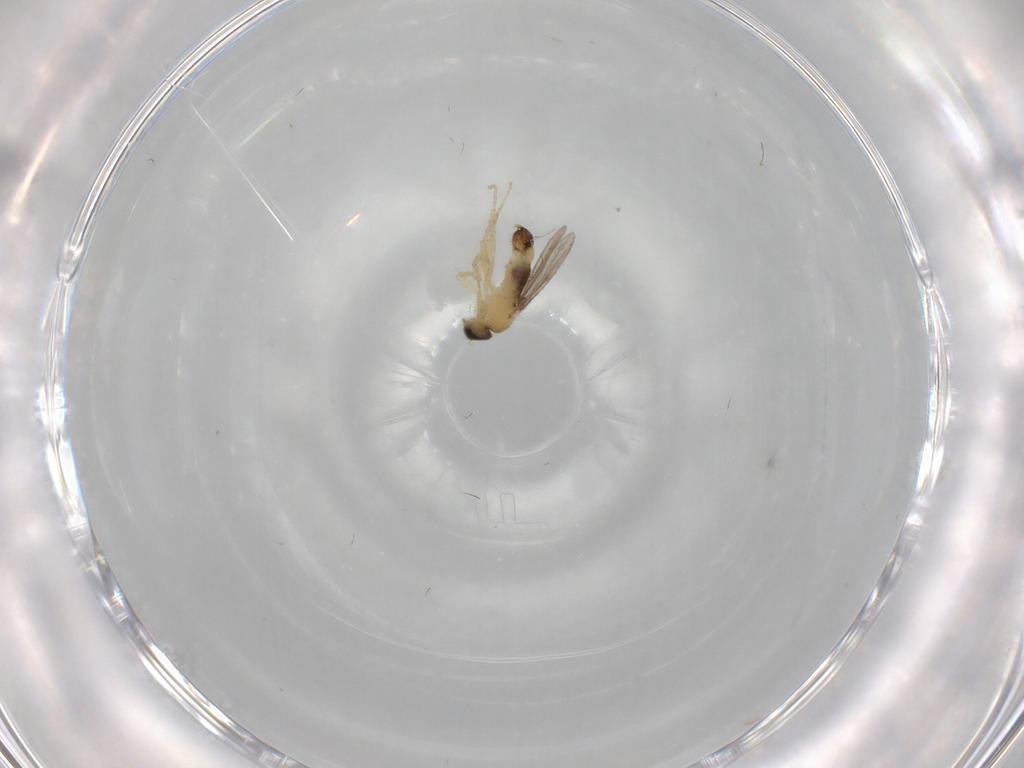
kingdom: Animalia
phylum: Arthropoda
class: Insecta
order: Diptera
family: Hybotidae
